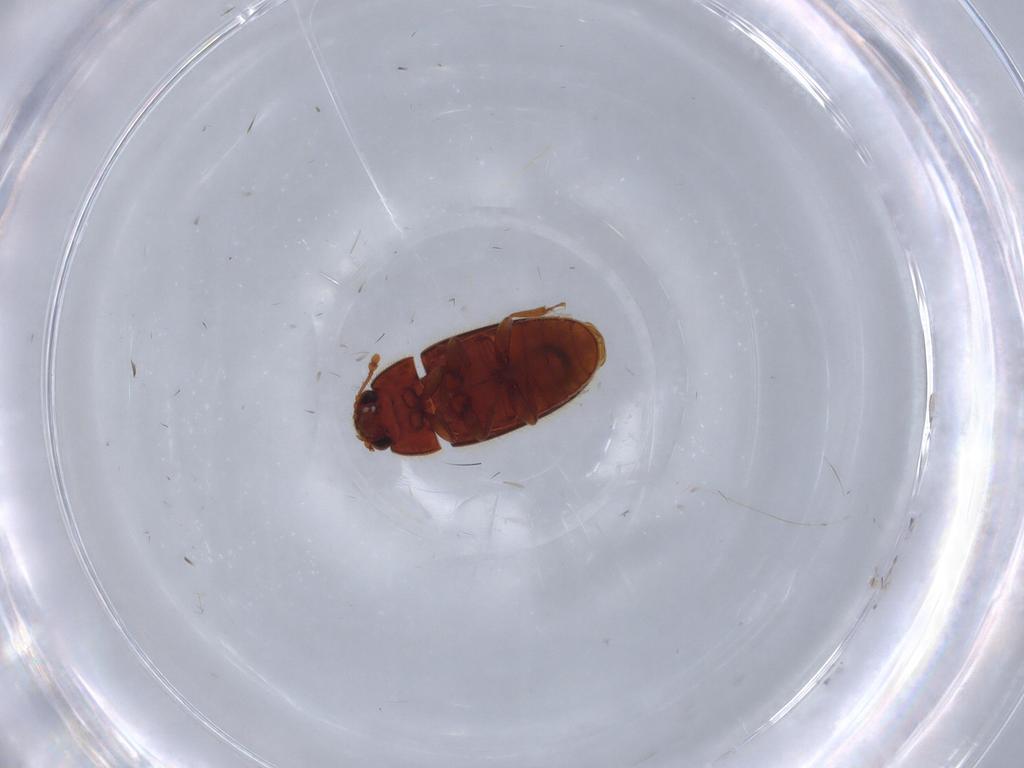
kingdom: Animalia
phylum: Arthropoda
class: Insecta
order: Coleoptera
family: Biphyllidae
